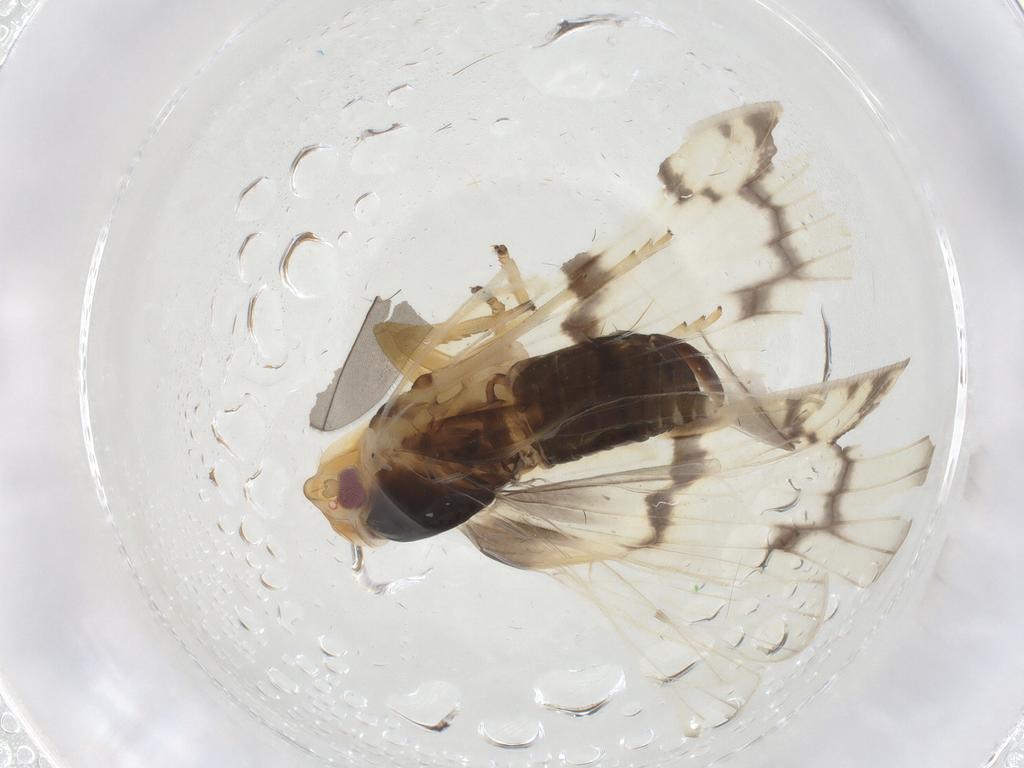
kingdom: Animalia
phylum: Arthropoda
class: Insecta
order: Hemiptera
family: Cixiidae
